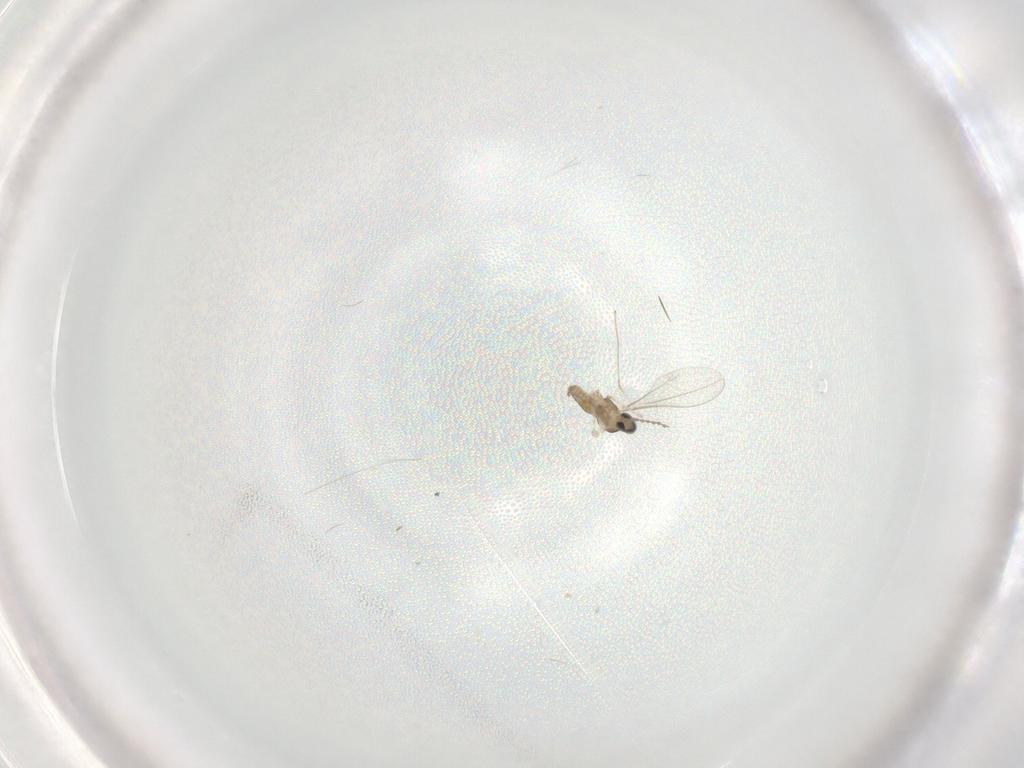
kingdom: Animalia
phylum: Arthropoda
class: Insecta
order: Diptera
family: Cecidomyiidae
